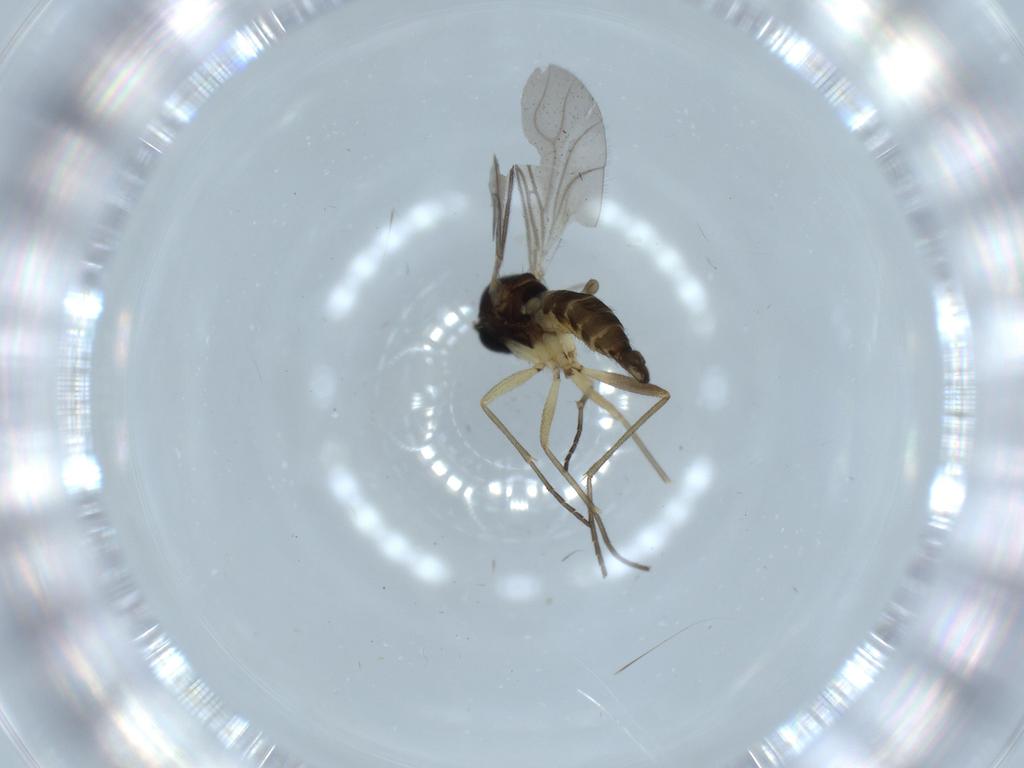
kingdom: Animalia
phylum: Arthropoda
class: Insecta
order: Diptera
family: Sciaridae
